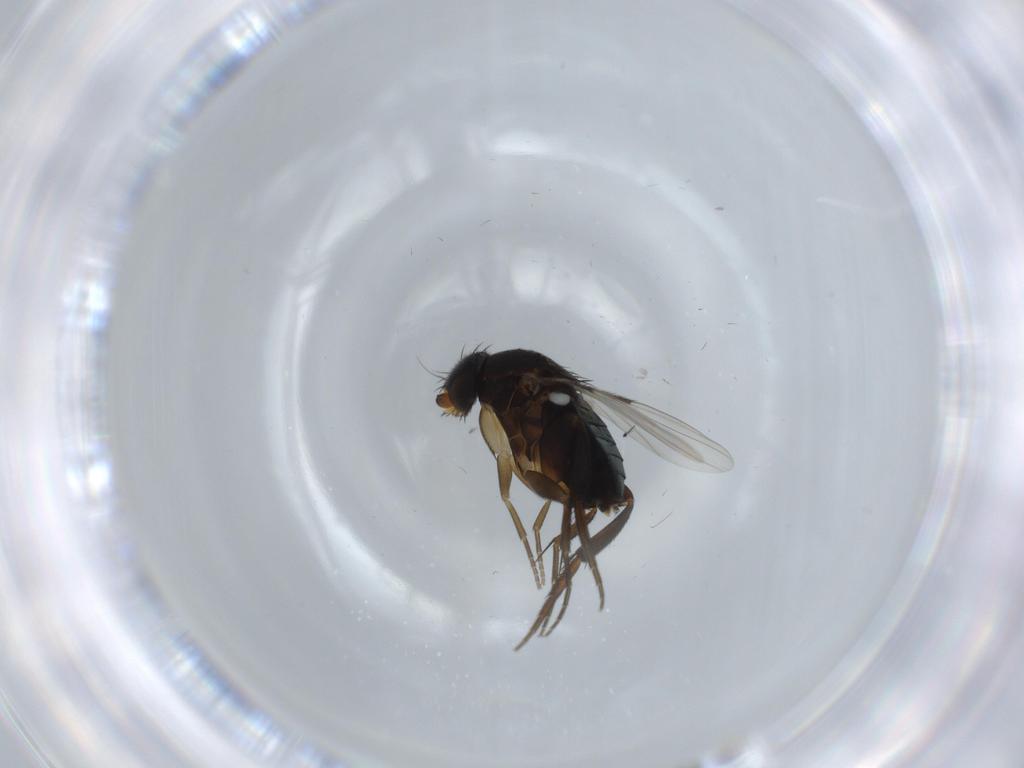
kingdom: Animalia
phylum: Arthropoda
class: Insecta
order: Diptera
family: Phoridae
